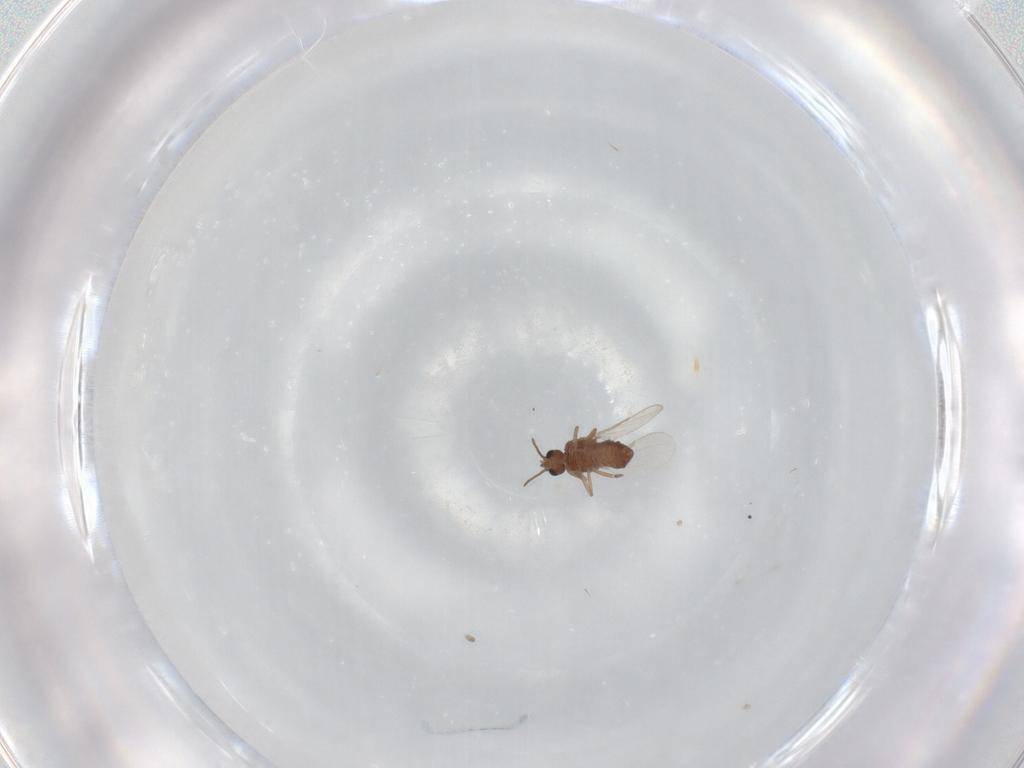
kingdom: Animalia
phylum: Arthropoda
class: Insecta
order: Diptera
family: Ceratopogonidae
